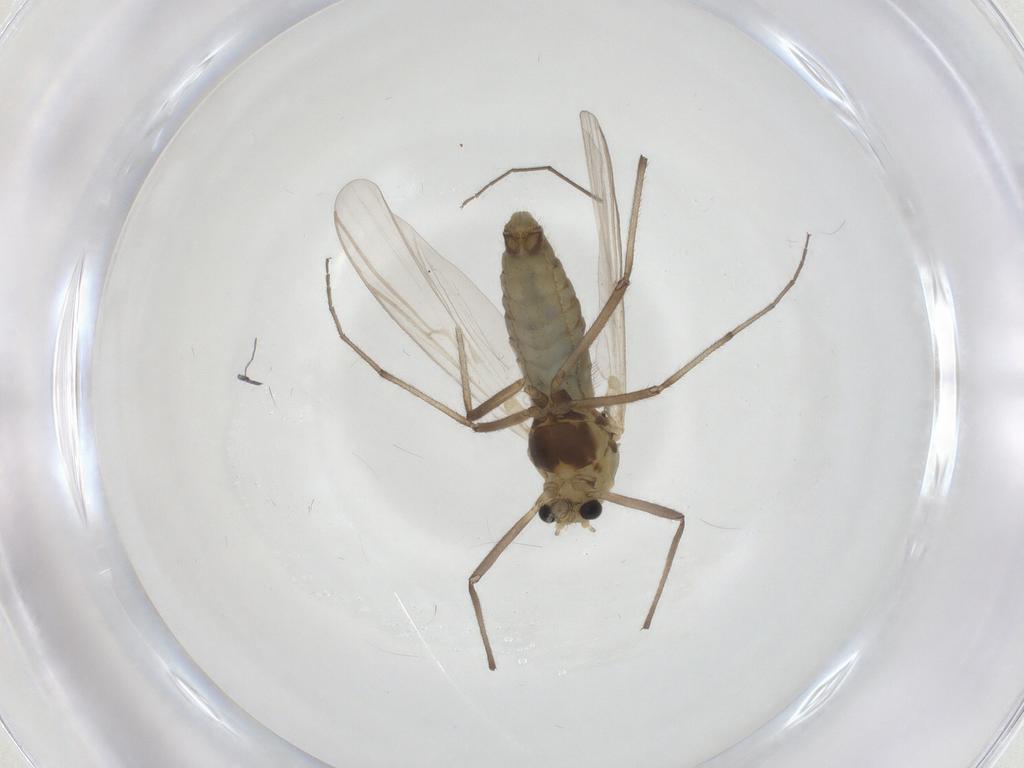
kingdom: Animalia
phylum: Arthropoda
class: Insecta
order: Diptera
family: Chironomidae
